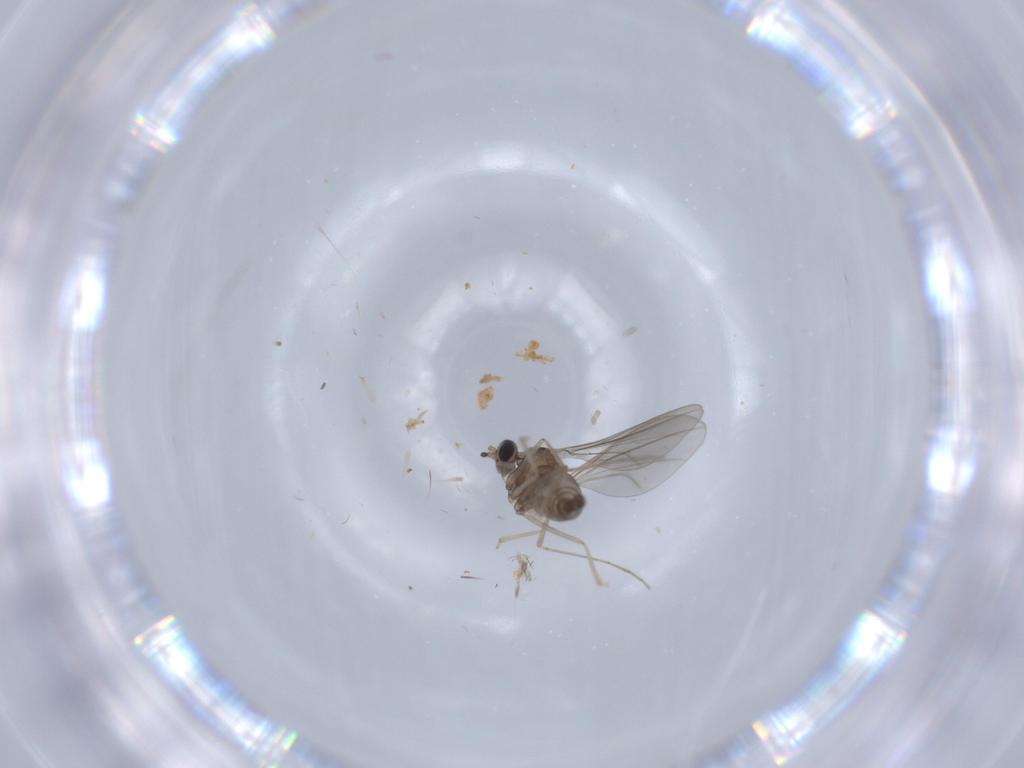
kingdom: Animalia
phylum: Arthropoda
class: Insecta
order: Diptera
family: Cecidomyiidae
